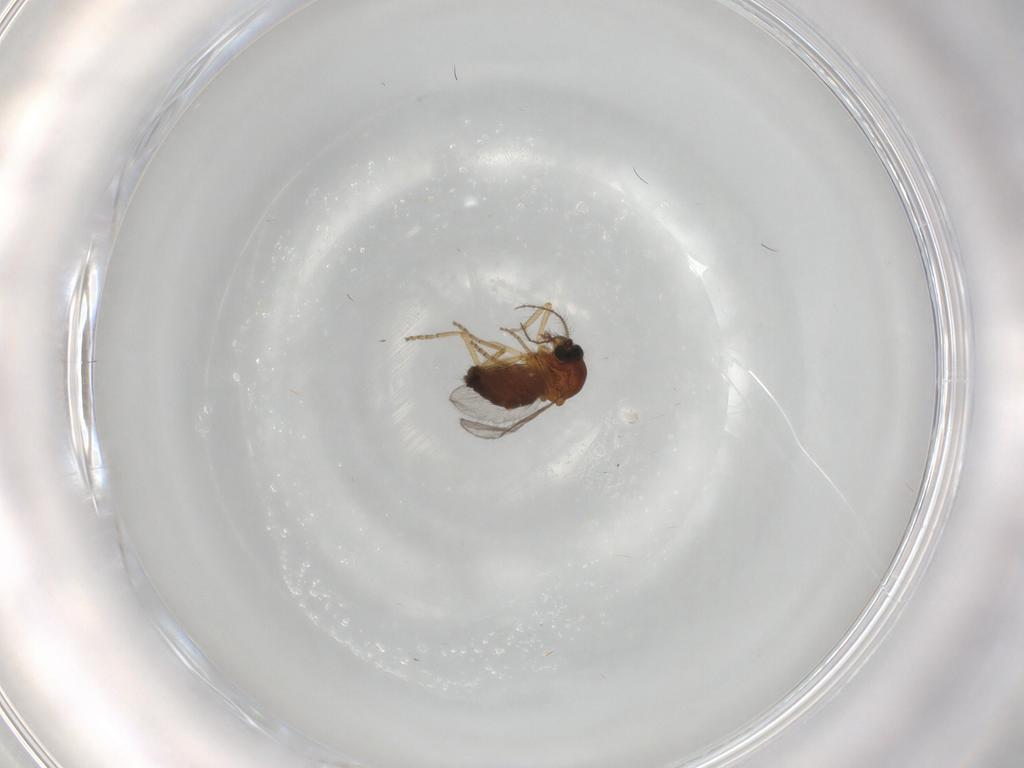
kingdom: Animalia
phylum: Arthropoda
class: Insecta
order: Diptera
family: Ceratopogonidae
